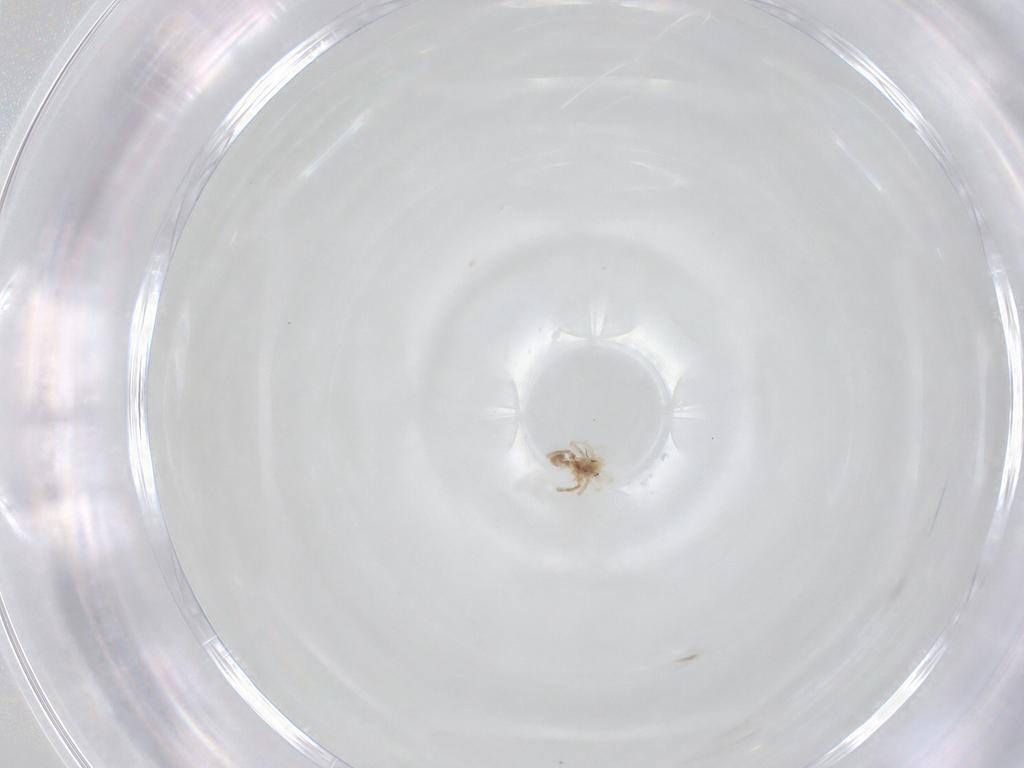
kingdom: Animalia
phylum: Arthropoda
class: Arachnida
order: Trombidiformes
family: Anystidae
